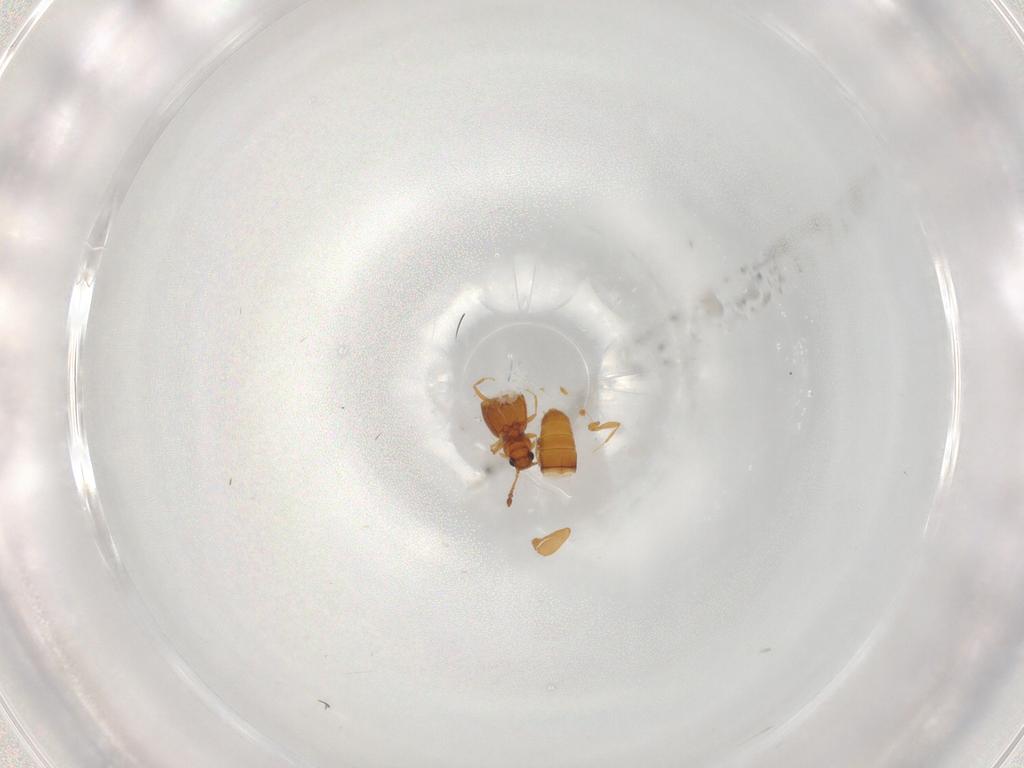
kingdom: Animalia
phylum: Arthropoda
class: Insecta
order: Coleoptera
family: Staphylinidae
